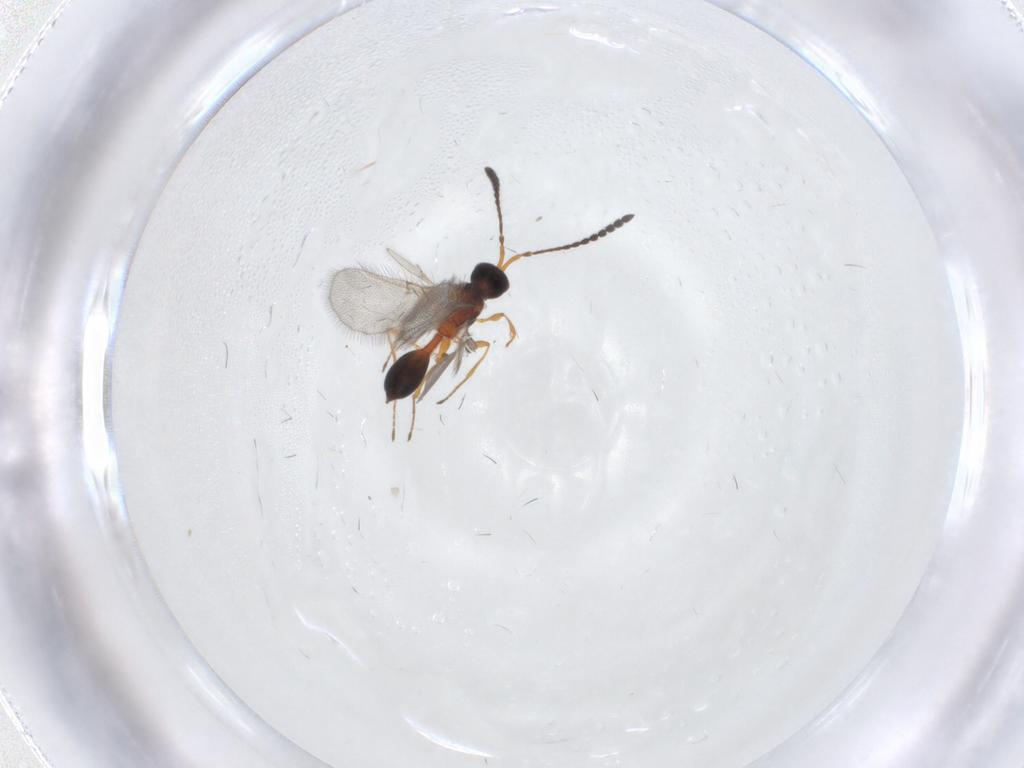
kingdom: Animalia
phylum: Arthropoda
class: Insecta
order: Hymenoptera
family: Diapriidae
